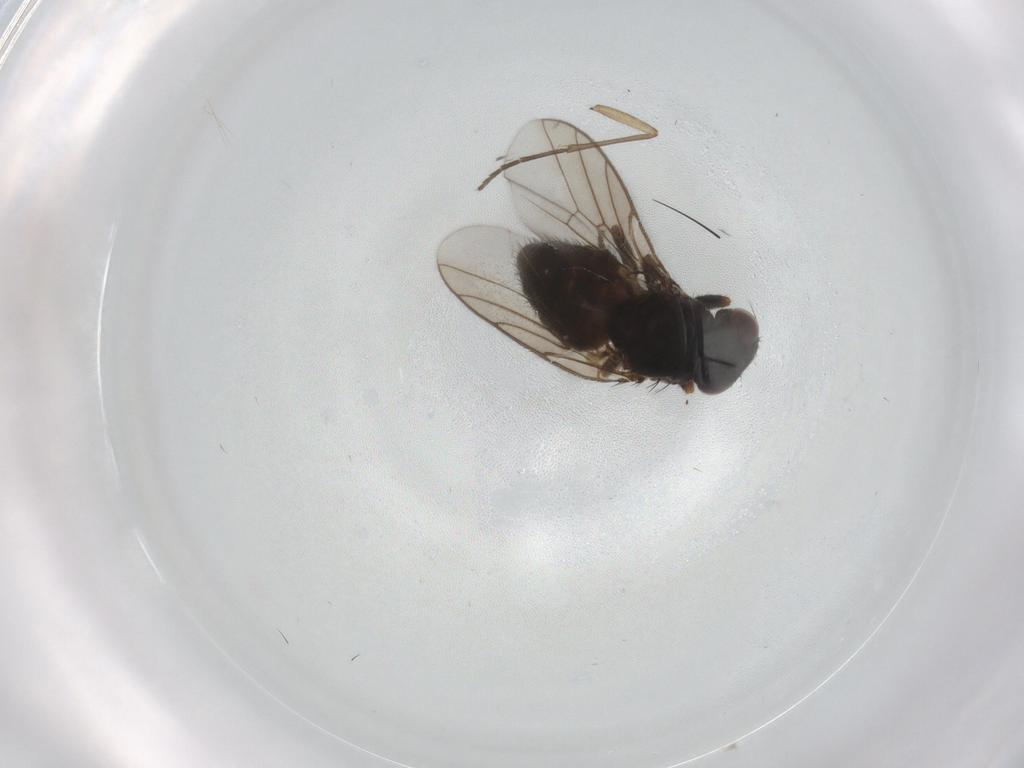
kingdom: Animalia
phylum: Arthropoda
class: Insecta
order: Diptera
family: Chloropidae
